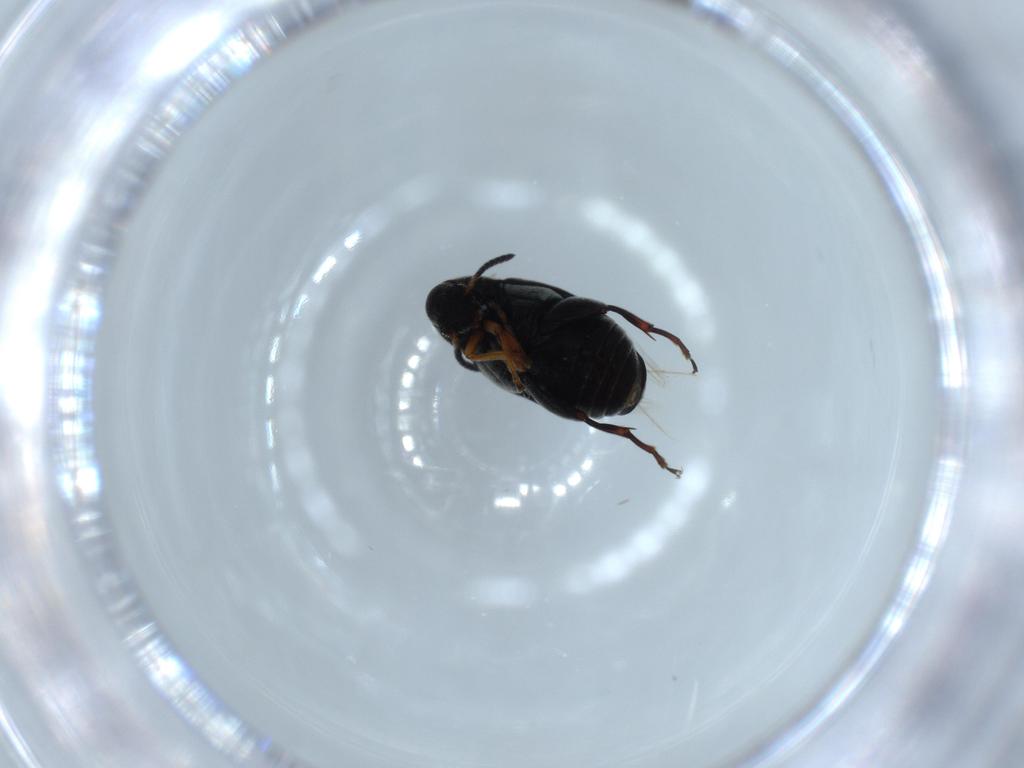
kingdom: Animalia
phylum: Arthropoda
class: Insecta
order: Coleoptera
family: Chrysomelidae
